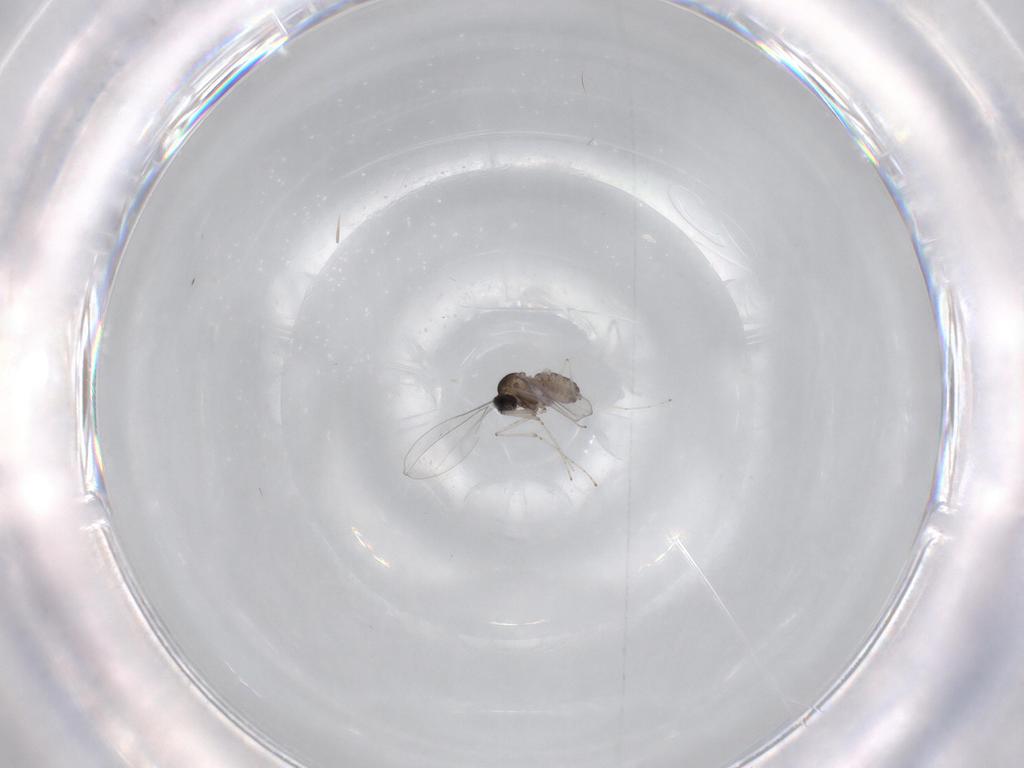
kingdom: Animalia
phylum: Arthropoda
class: Insecta
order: Diptera
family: Cecidomyiidae
